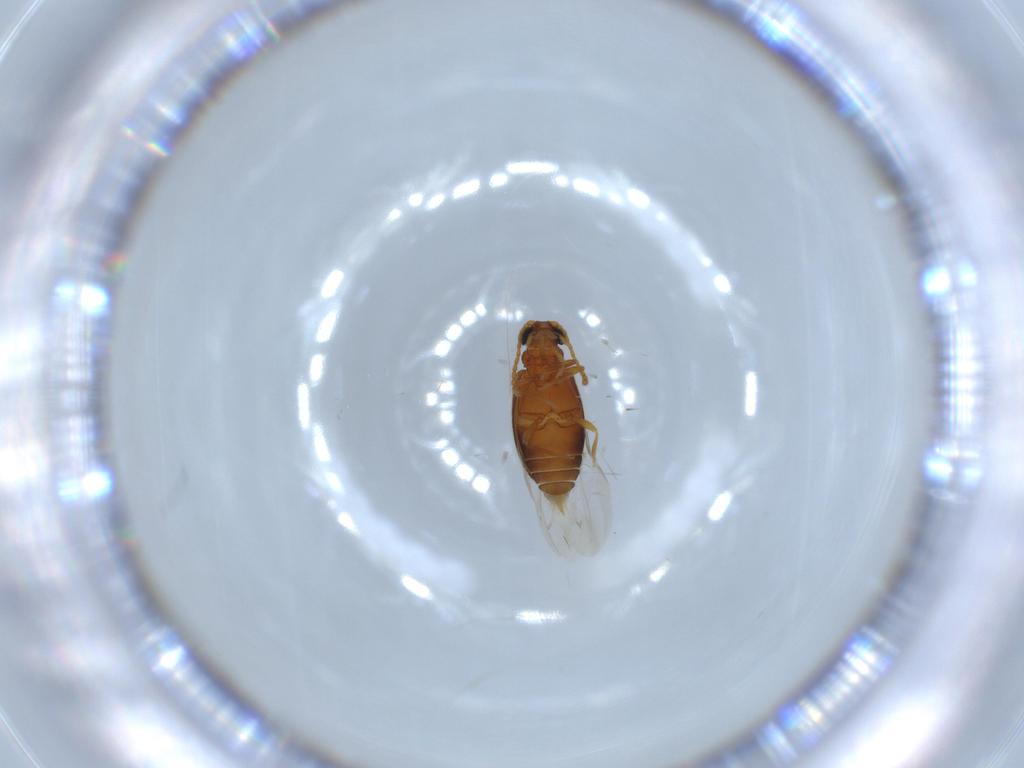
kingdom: Animalia
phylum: Arthropoda
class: Insecta
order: Coleoptera
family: Aderidae
